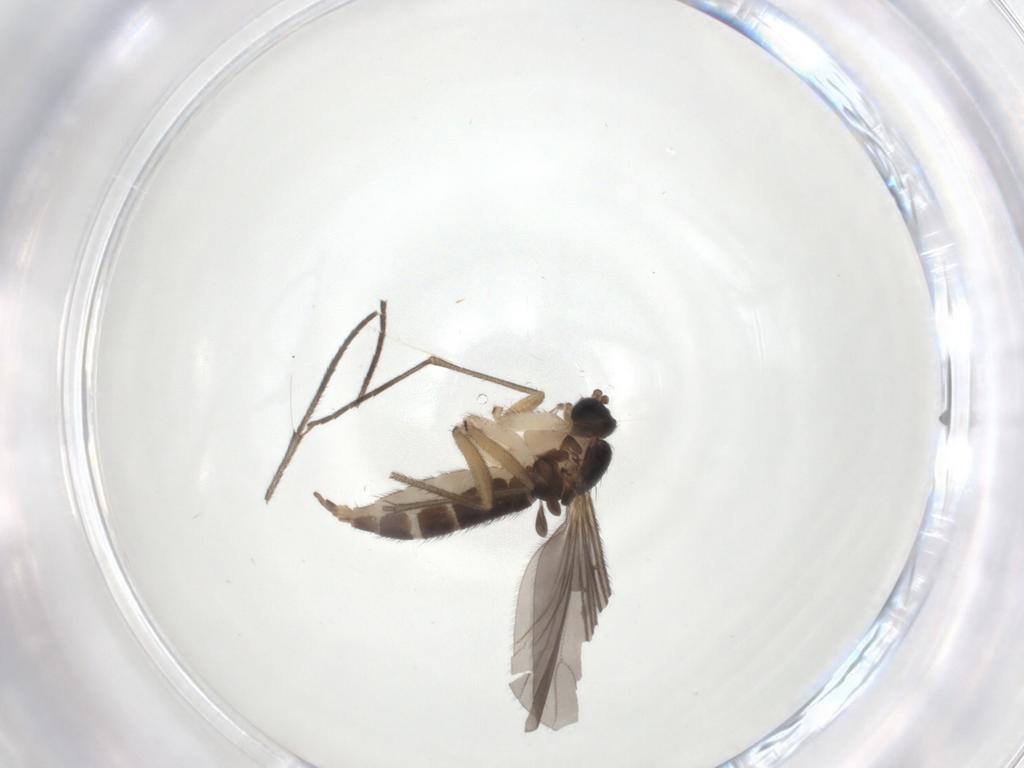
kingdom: Animalia
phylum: Arthropoda
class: Insecta
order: Diptera
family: Sciaridae
